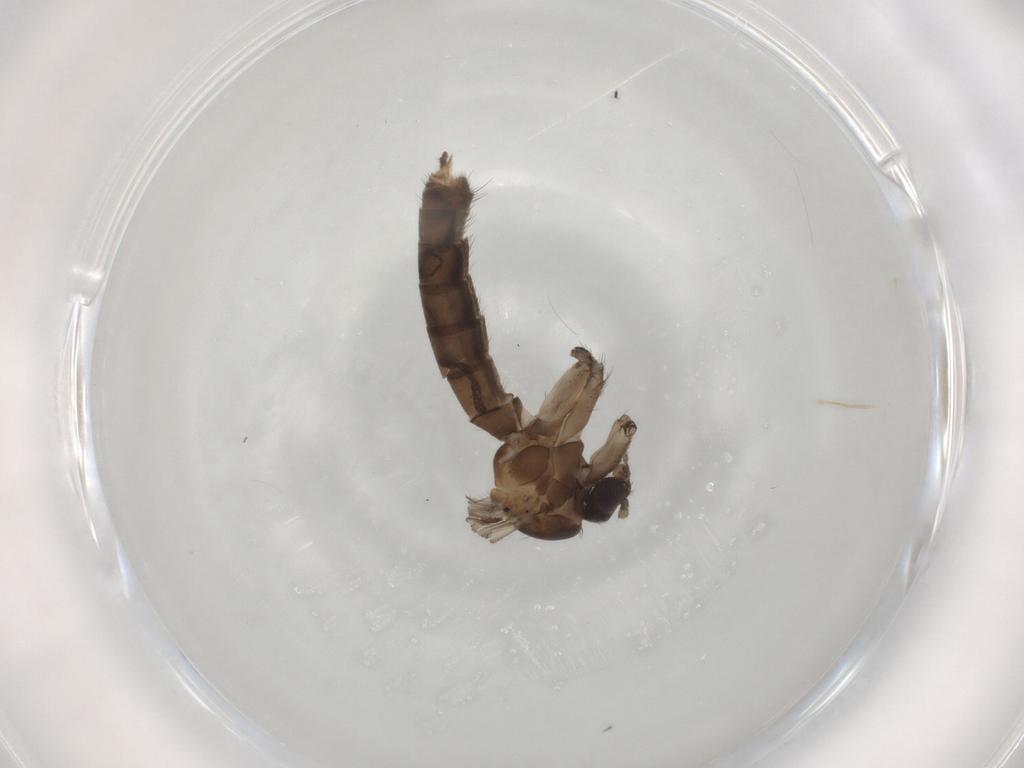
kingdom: Animalia
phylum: Arthropoda
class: Insecta
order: Diptera
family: Mycetophilidae
